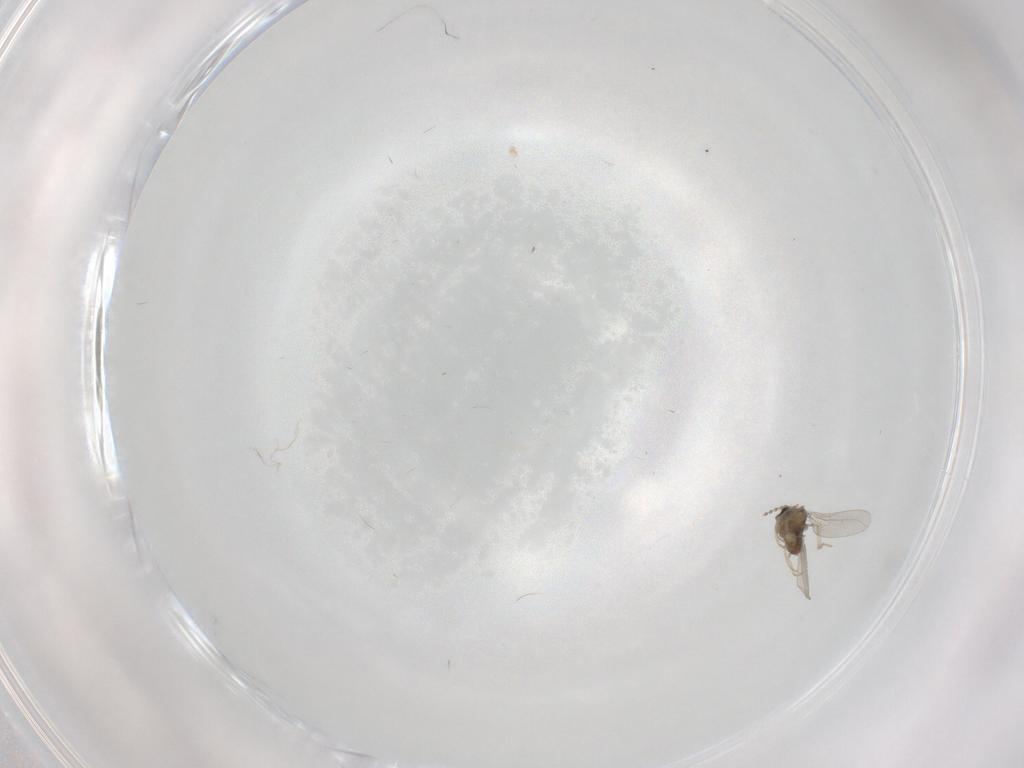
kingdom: Animalia
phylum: Arthropoda
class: Insecta
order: Diptera
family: Cecidomyiidae
